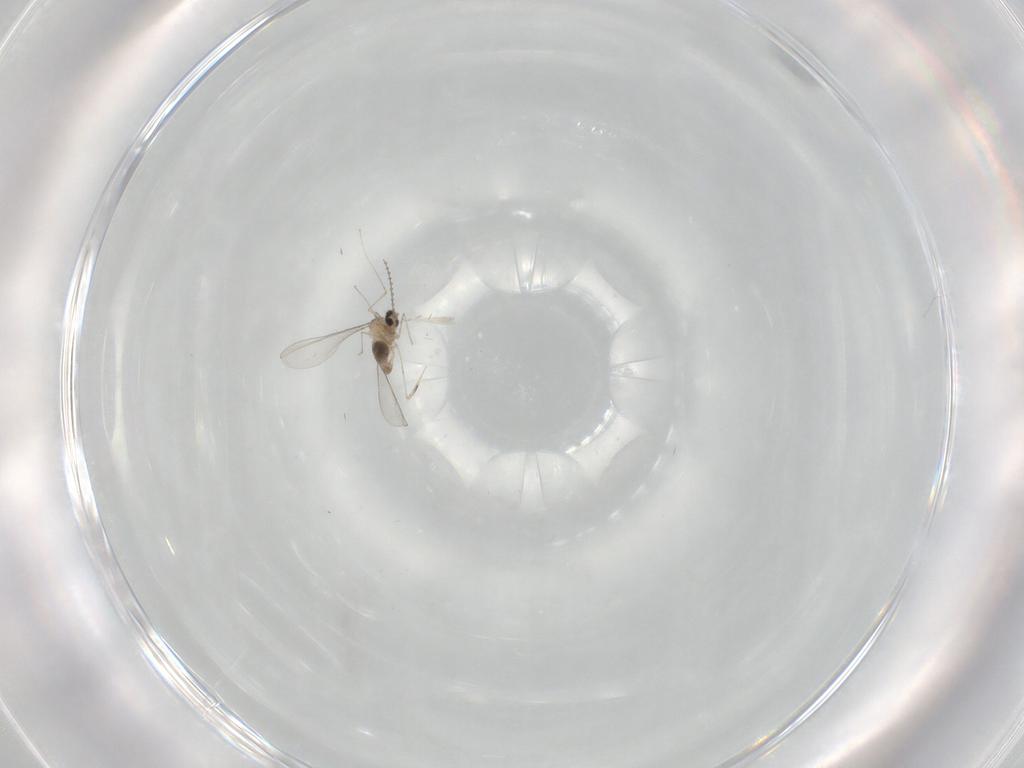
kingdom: Animalia
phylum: Arthropoda
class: Insecta
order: Diptera
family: Cecidomyiidae
